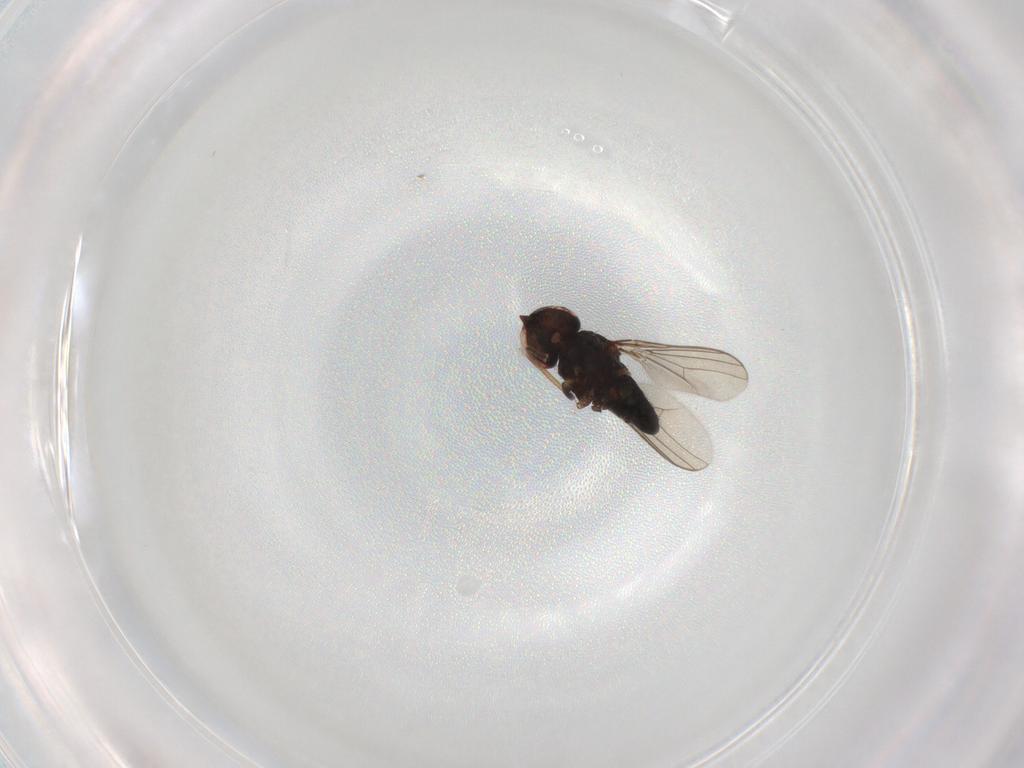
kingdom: Animalia
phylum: Arthropoda
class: Insecta
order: Diptera
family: Dolichopodidae
